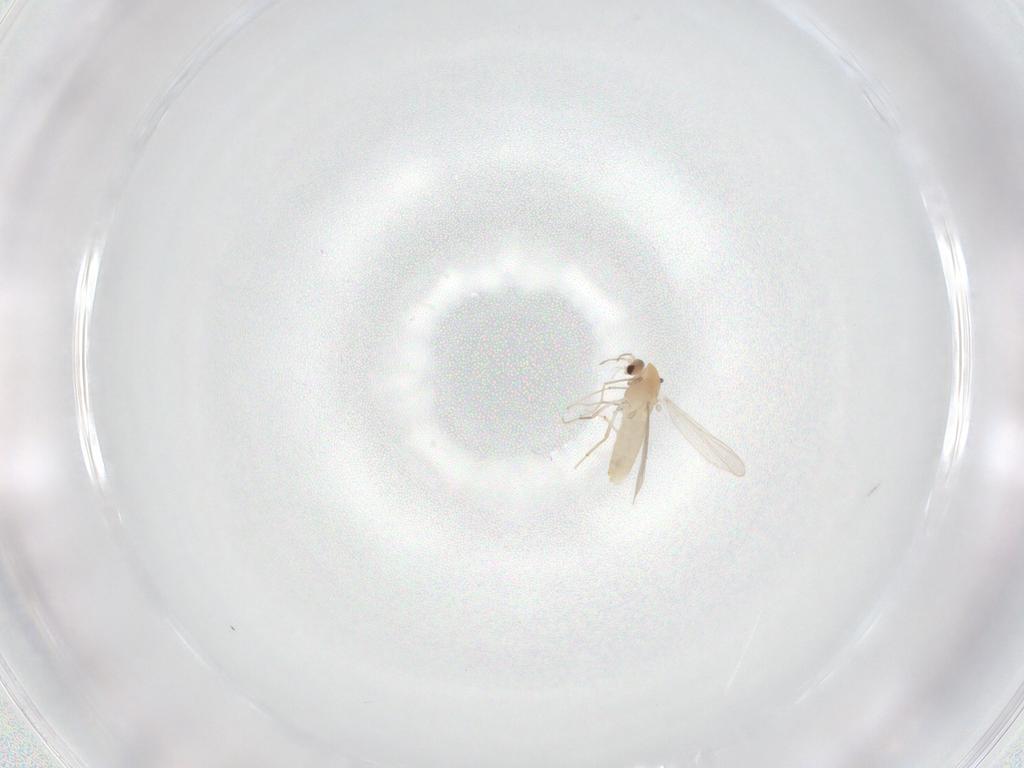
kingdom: Animalia
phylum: Arthropoda
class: Insecta
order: Diptera
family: Chironomidae
